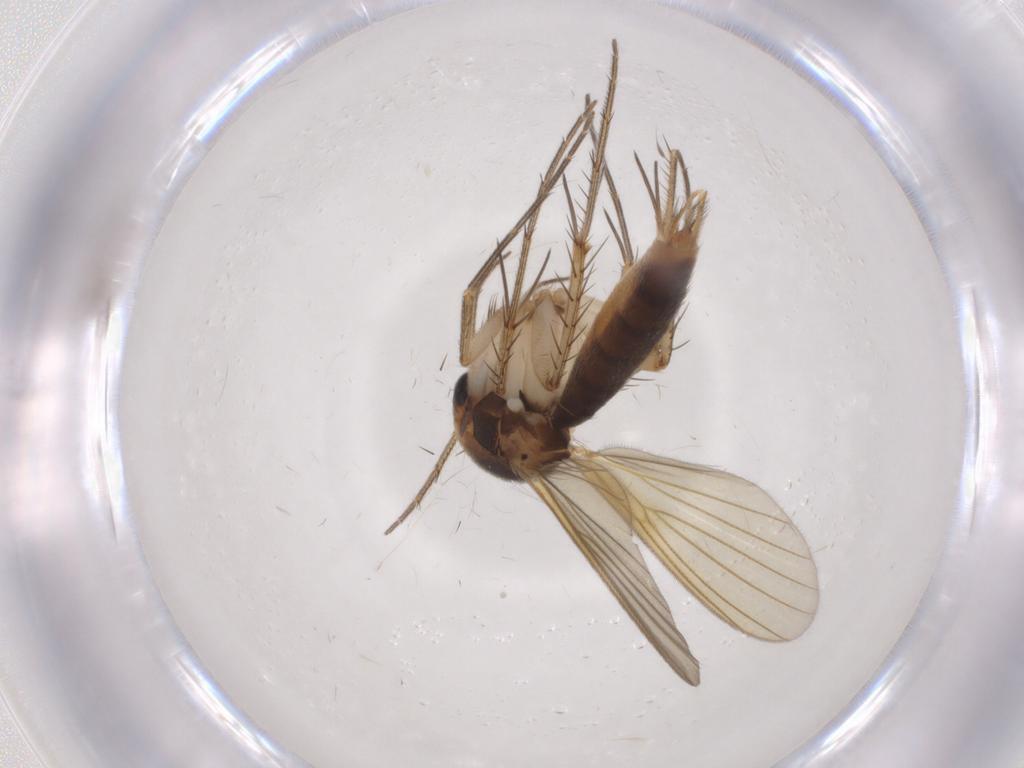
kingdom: Animalia
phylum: Arthropoda
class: Insecta
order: Diptera
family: Mycetophilidae
